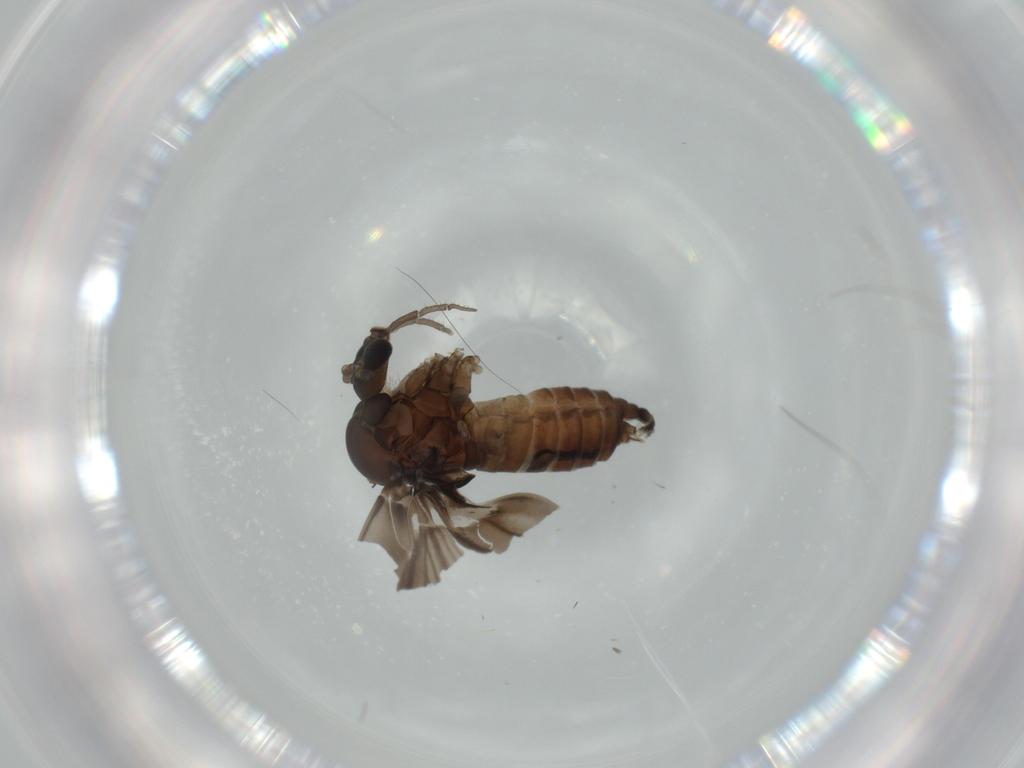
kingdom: Animalia
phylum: Arthropoda
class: Insecta
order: Diptera
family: Psychodidae
